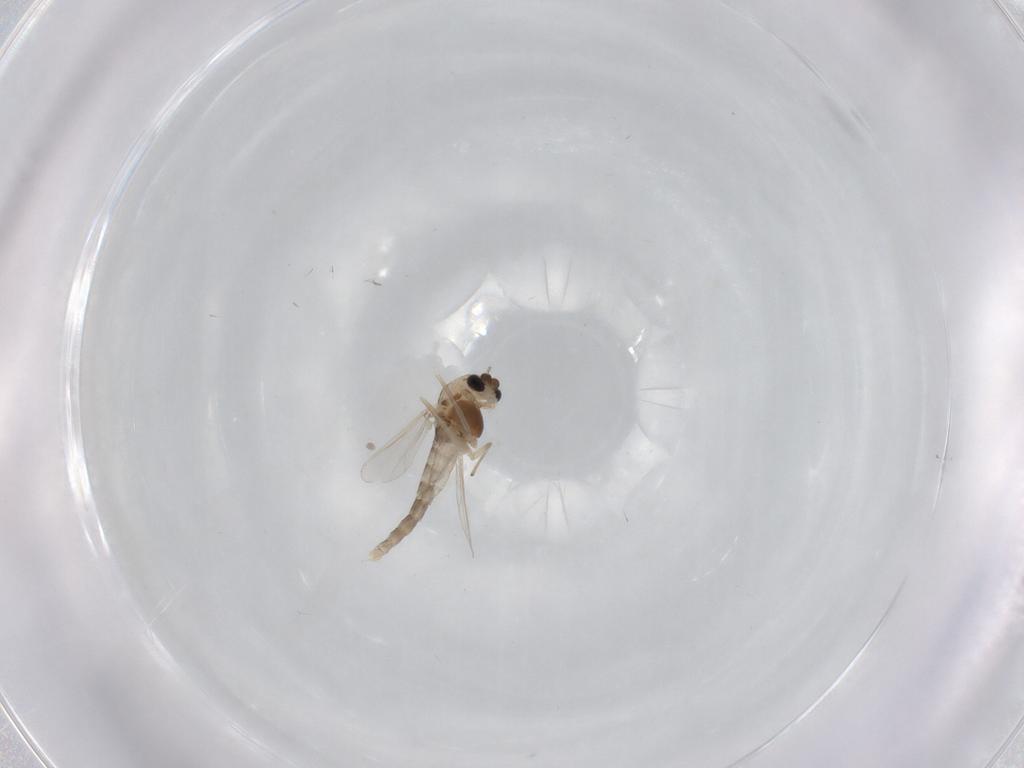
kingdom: Animalia
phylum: Arthropoda
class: Insecta
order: Diptera
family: Chironomidae
